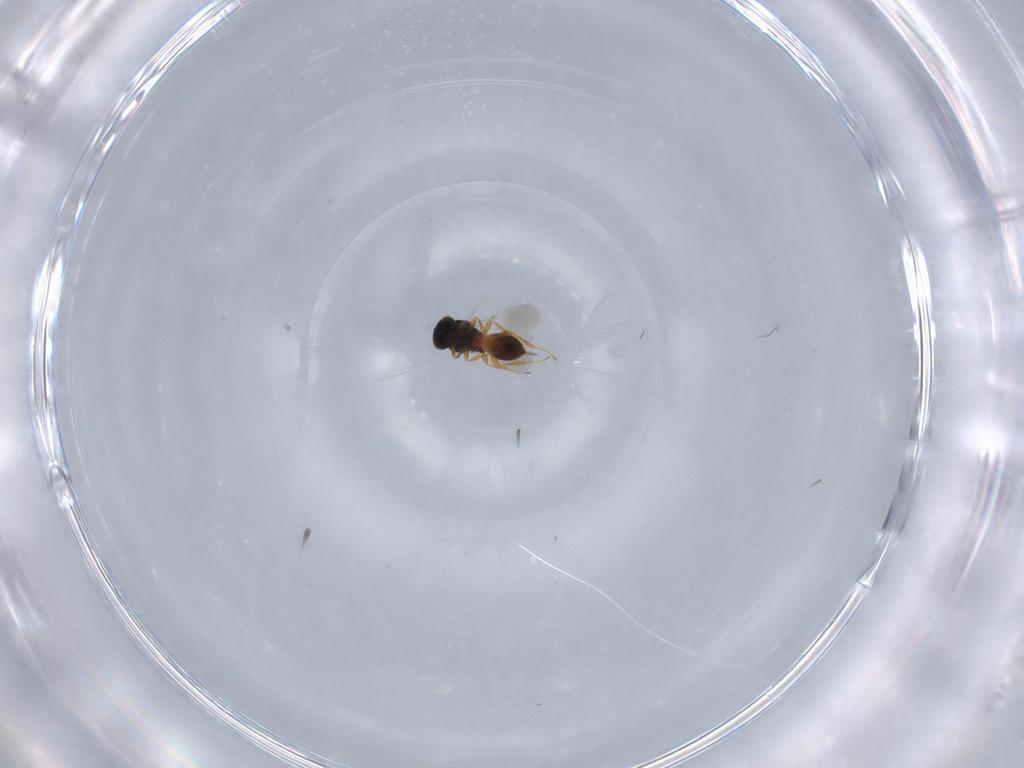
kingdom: Animalia
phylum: Arthropoda
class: Insecta
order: Hymenoptera
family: Platygastridae
